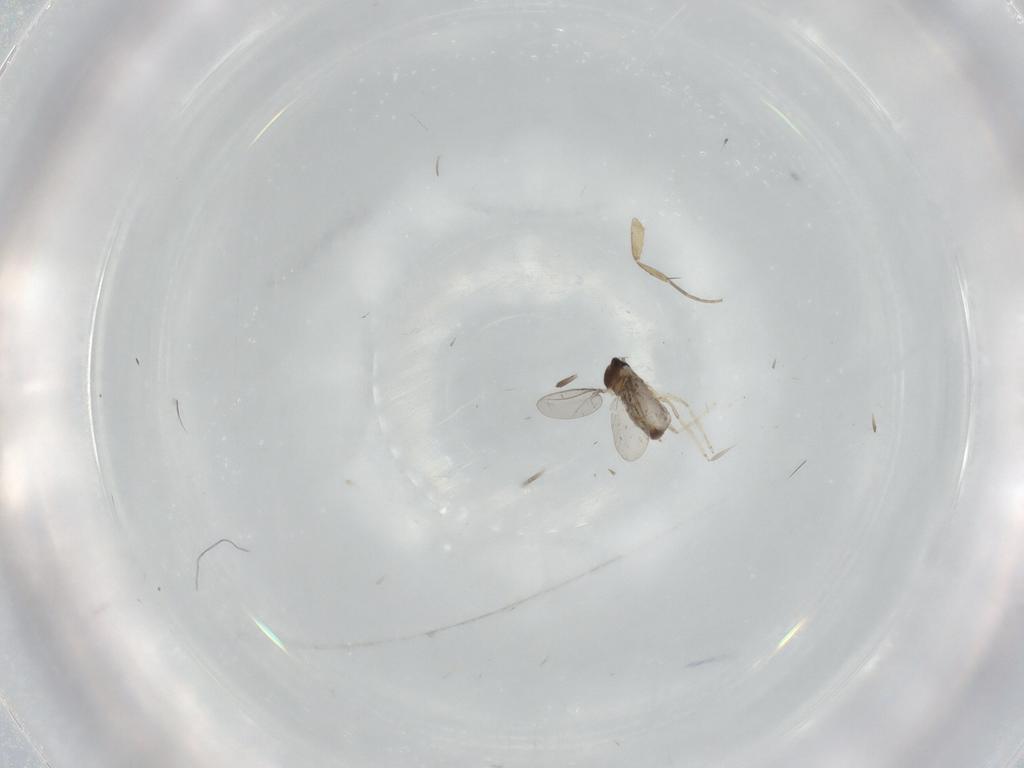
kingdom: Animalia
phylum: Arthropoda
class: Insecta
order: Diptera
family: Cecidomyiidae
